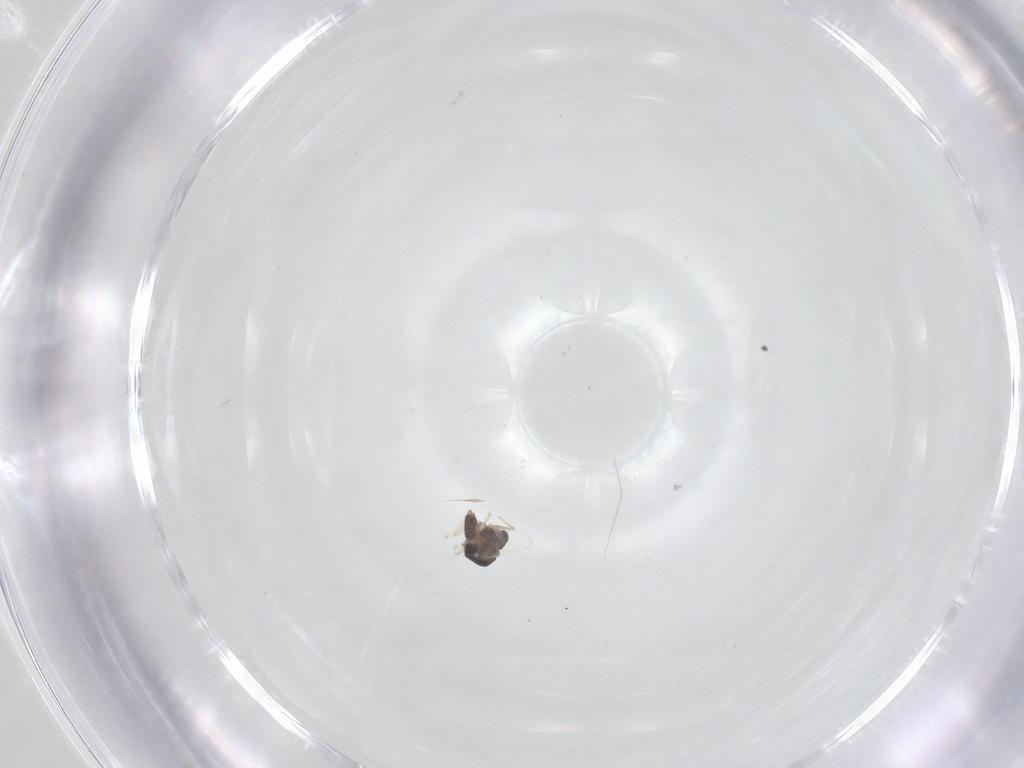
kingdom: Animalia
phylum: Arthropoda
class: Insecta
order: Diptera
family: Chironomidae
